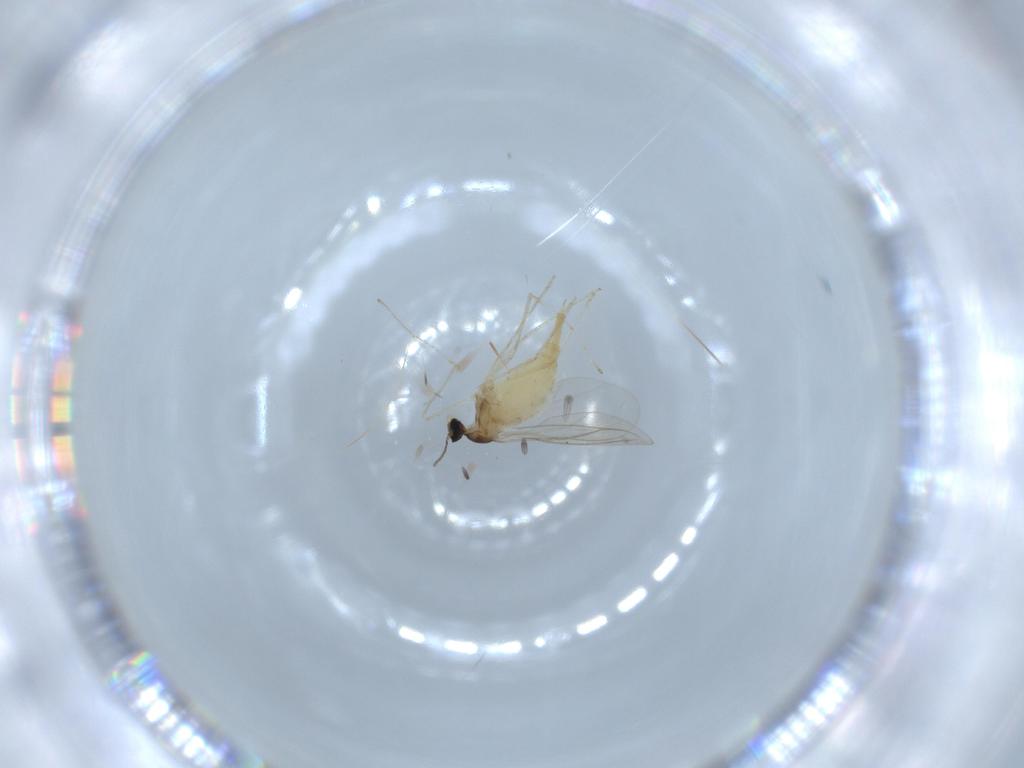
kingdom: Animalia
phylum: Arthropoda
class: Insecta
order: Diptera
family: Cecidomyiidae
